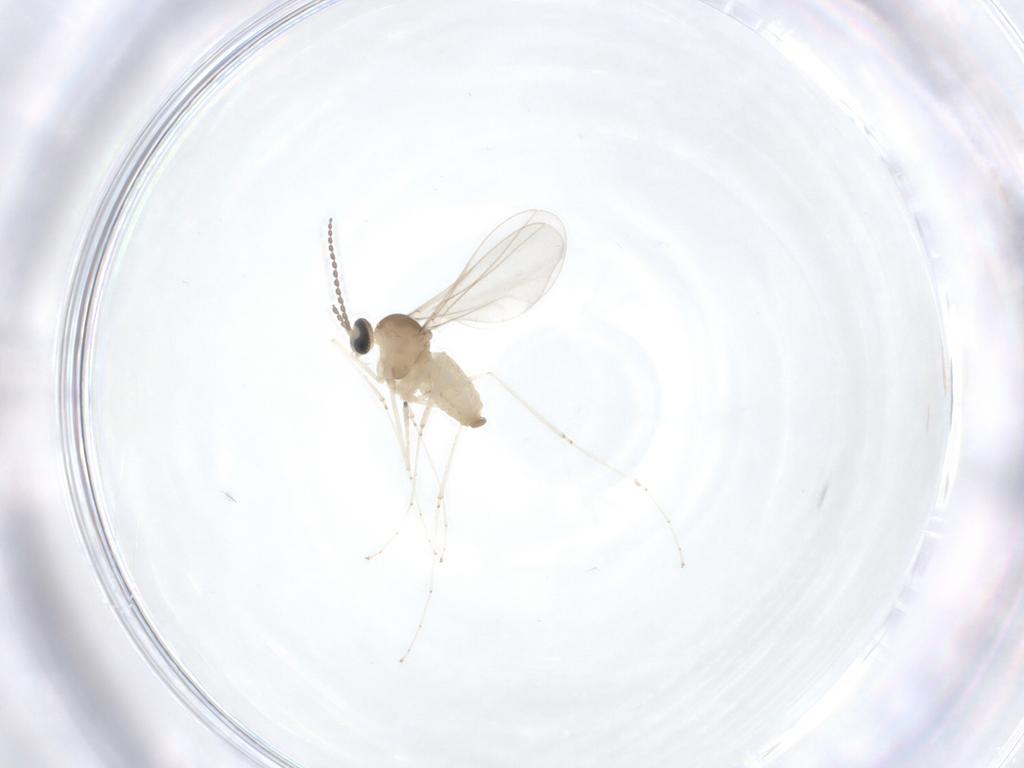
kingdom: Animalia
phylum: Arthropoda
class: Insecta
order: Diptera
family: Cecidomyiidae
